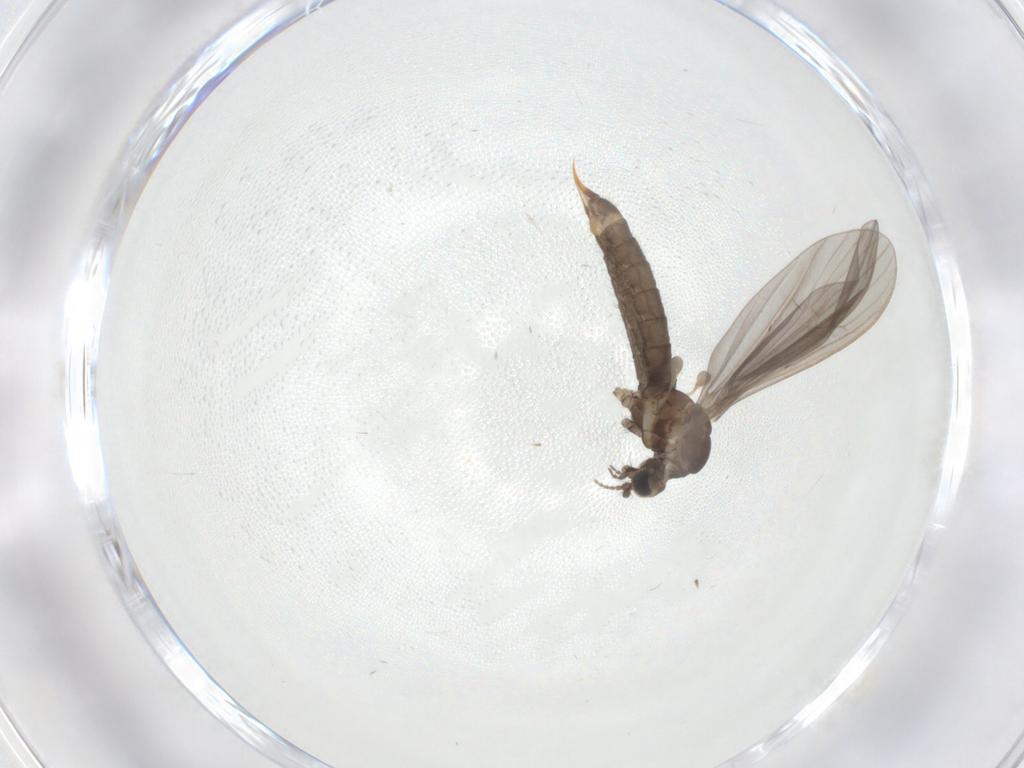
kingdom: Animalia
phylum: Arthropoda
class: Insecta
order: Diptera
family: Limoniidae
